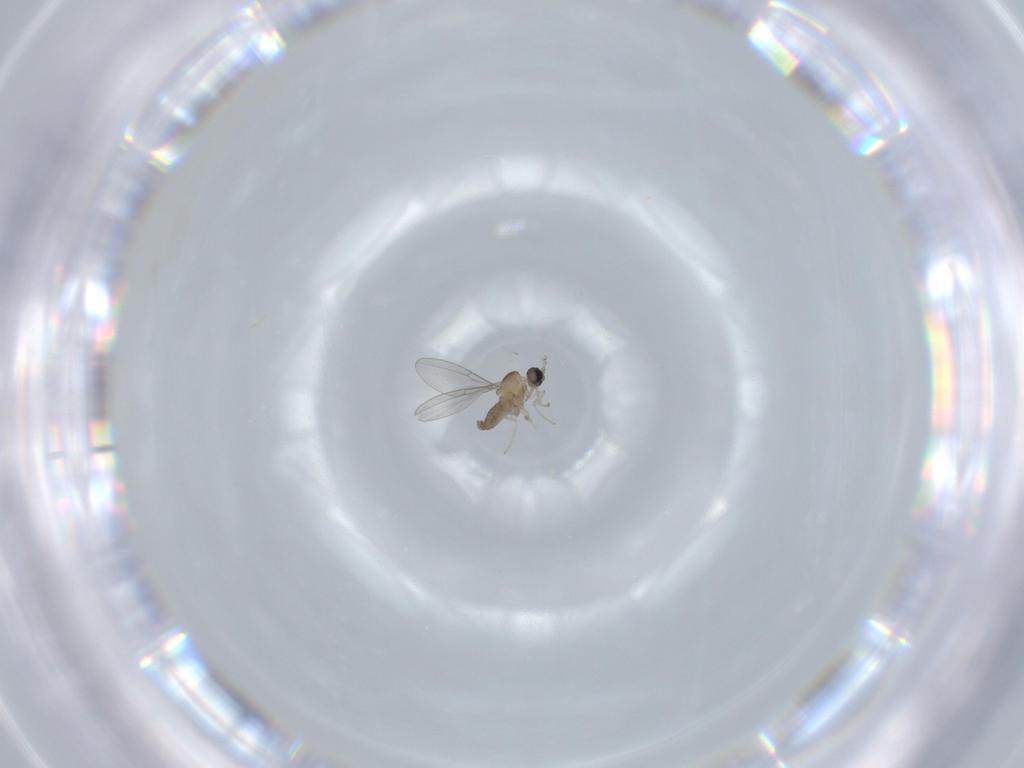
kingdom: Animalia
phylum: Arthropoda
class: Insecta
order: Diptera
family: Cecidomyiidae
